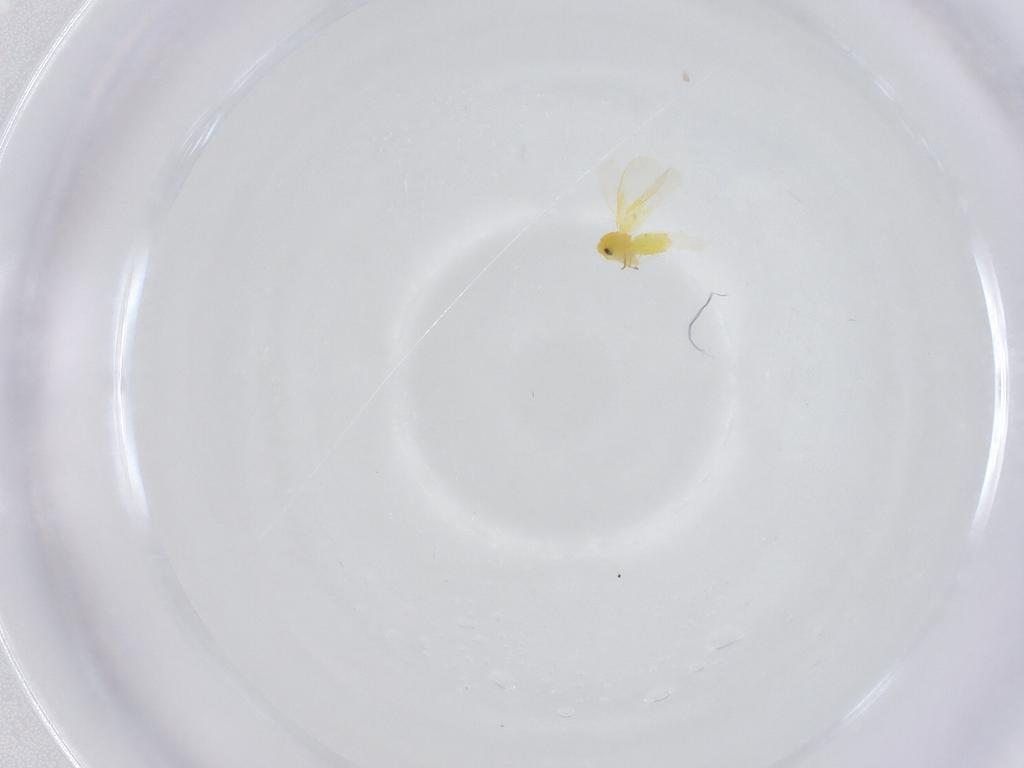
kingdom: Animalia
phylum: Arthropoda
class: Insecta
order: Hemiptera
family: Aleyrodidae
